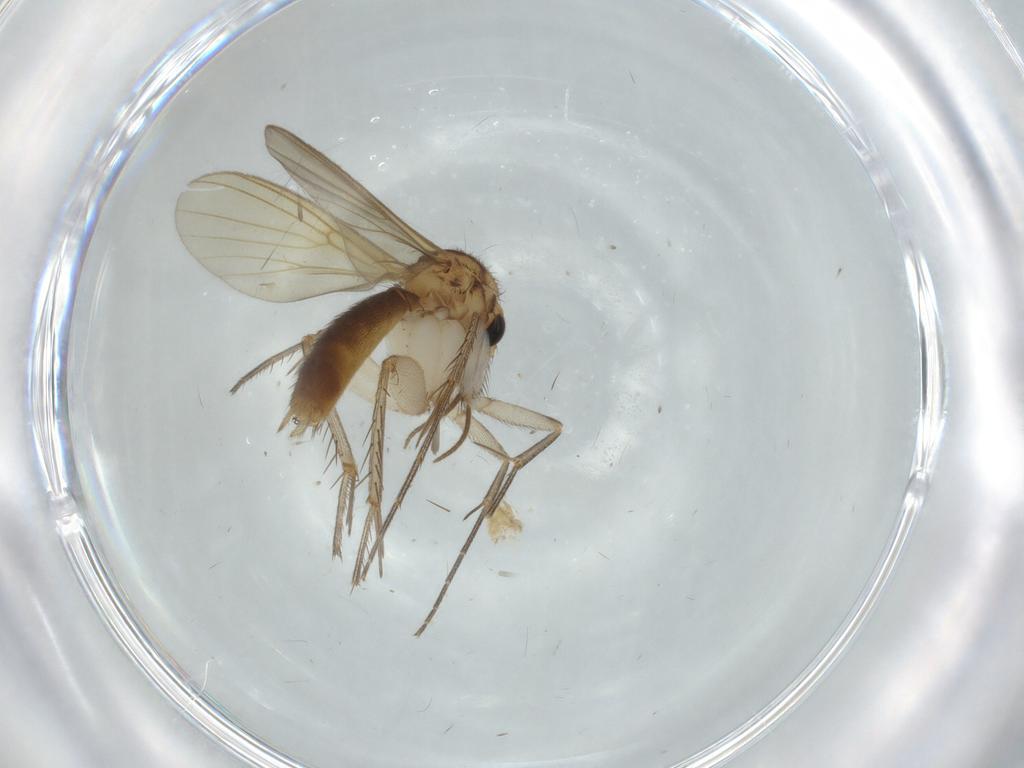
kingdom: Animalia
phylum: Arthropoda
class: Insecta
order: Diptera
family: Mycetophilidae
